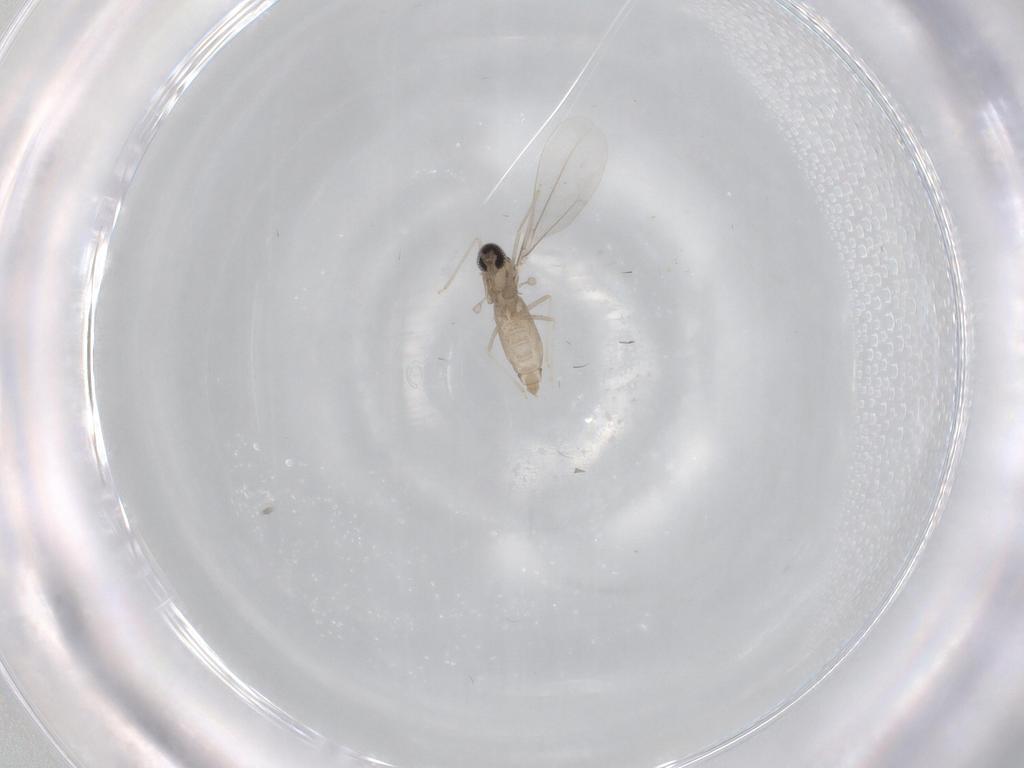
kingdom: Animalia
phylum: Arthropoda
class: Insecta
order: Diptera
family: Cecidomyiidae
